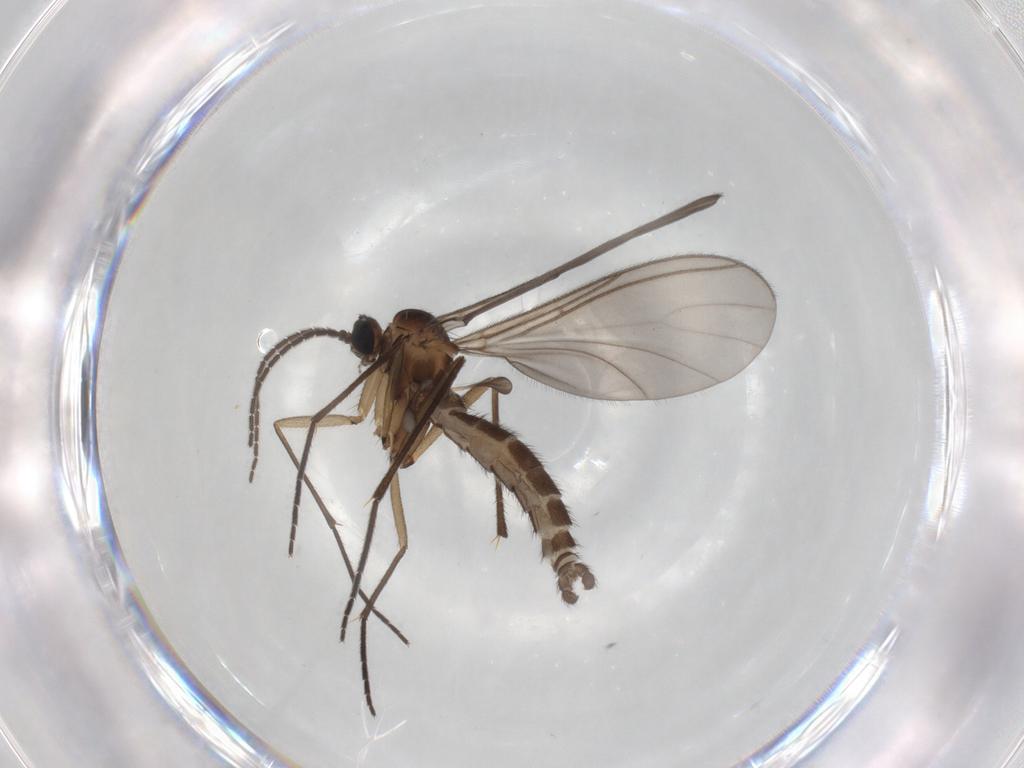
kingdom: Animalia
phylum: Arthropoda
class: Insecta
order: Diptera
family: Sciaridae
